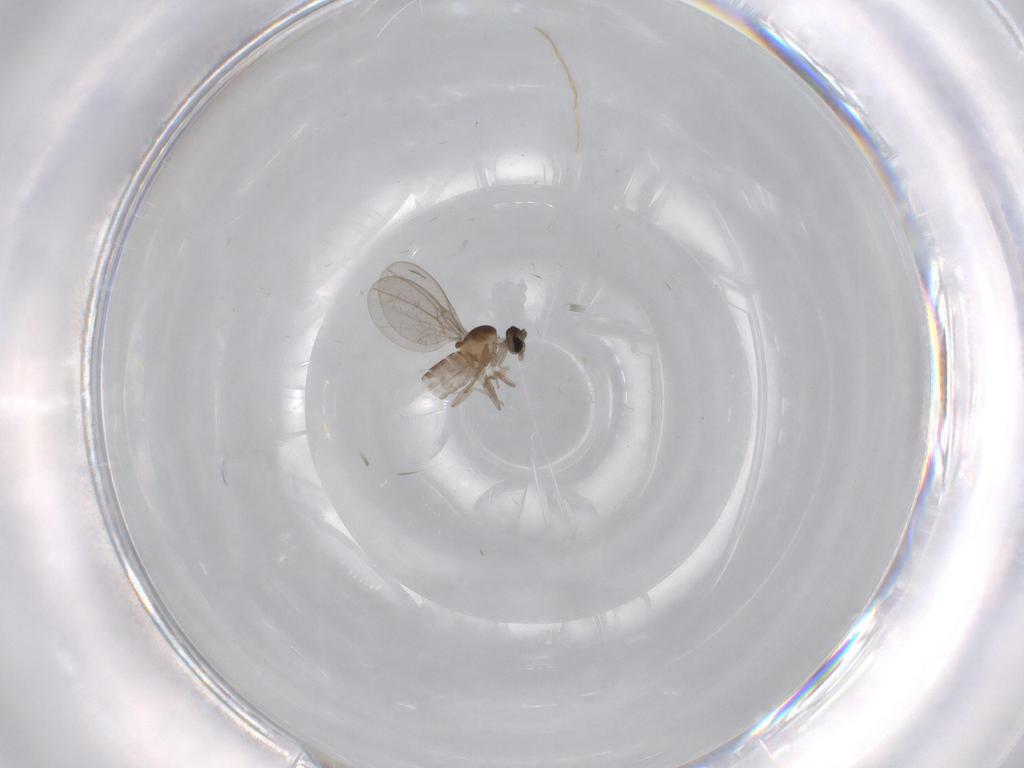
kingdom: Animalia
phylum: Arthropoda
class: Insecta
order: Diptera
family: Cecidomyiidae
